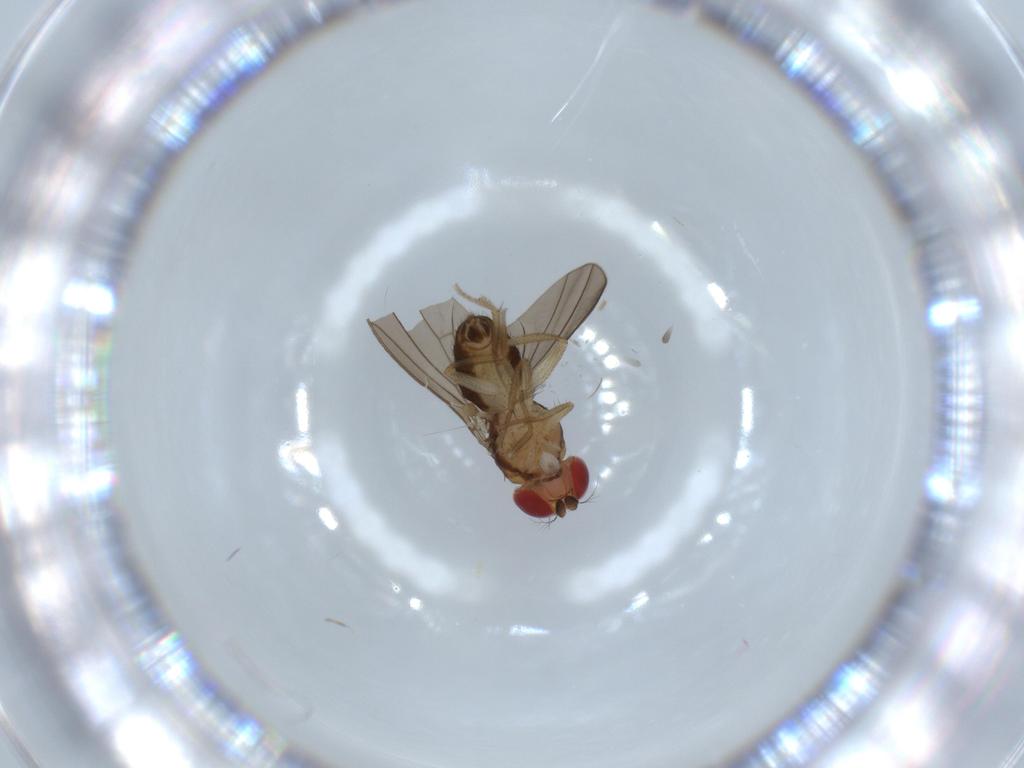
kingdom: Animalia
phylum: Arthropoda
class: Insecta
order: Diptera
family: Drosophilidae
